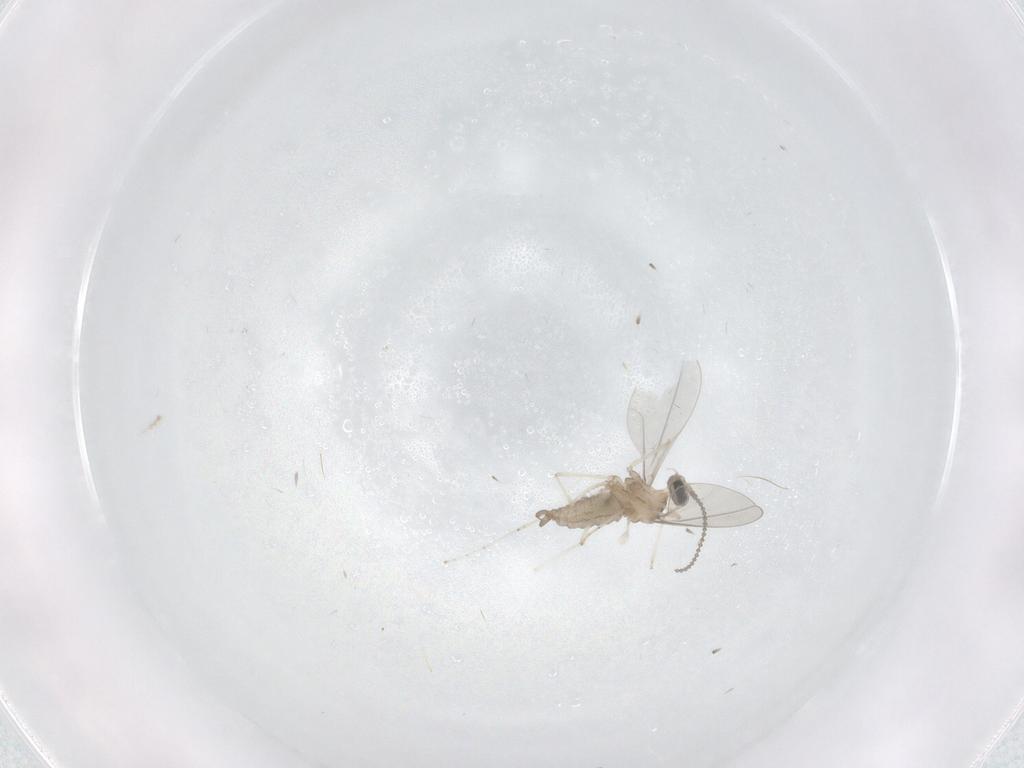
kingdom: Animalia
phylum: Arthropoda
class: Insecta
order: Diptera
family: Cecidomyiidae
